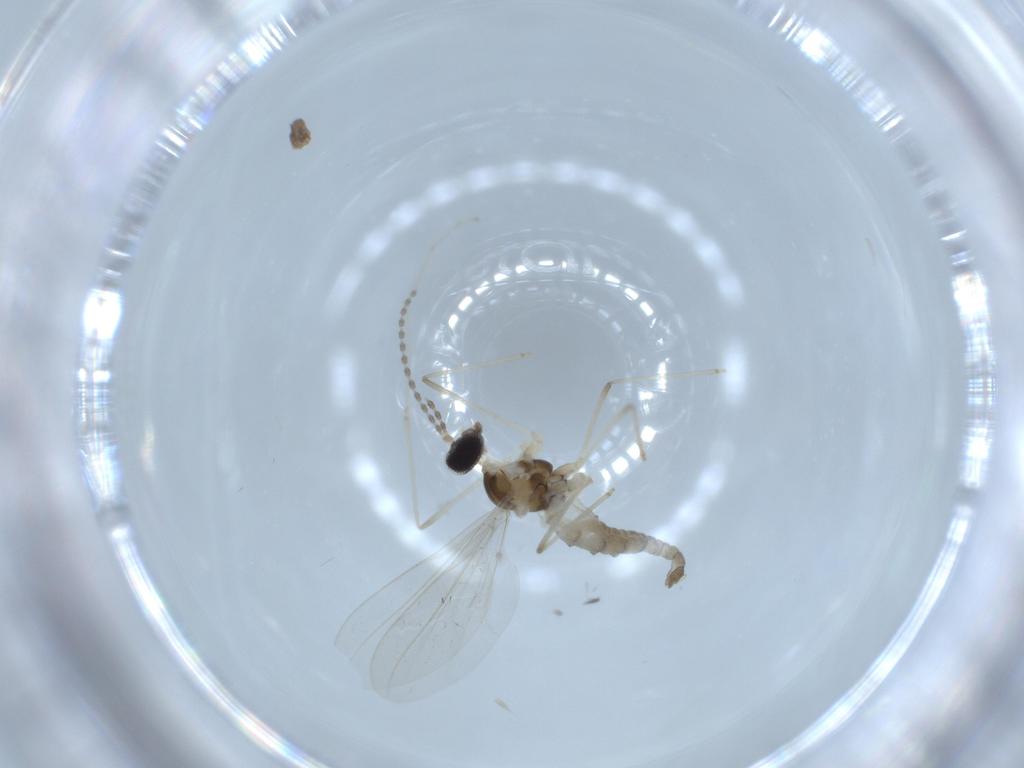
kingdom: Animalia
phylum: Arthropoda
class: Insecta
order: Diptera
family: Cecidomyiidae
